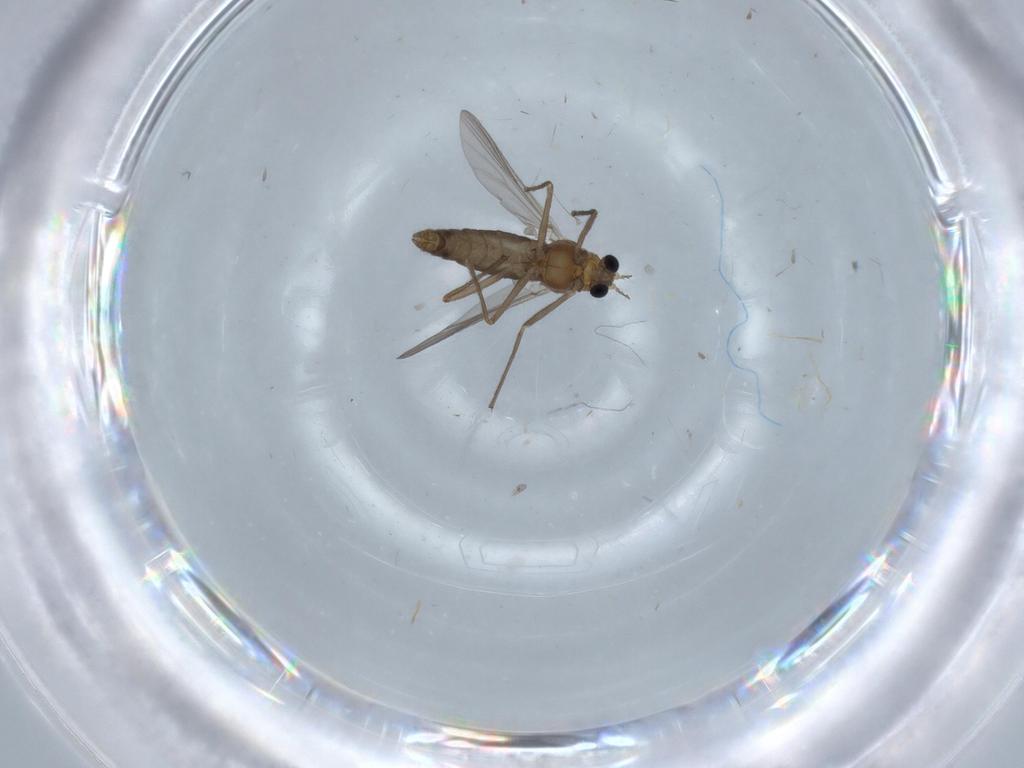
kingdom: Animalia
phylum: Arthropoda
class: Insecta
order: Diptera
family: Chironomidae
